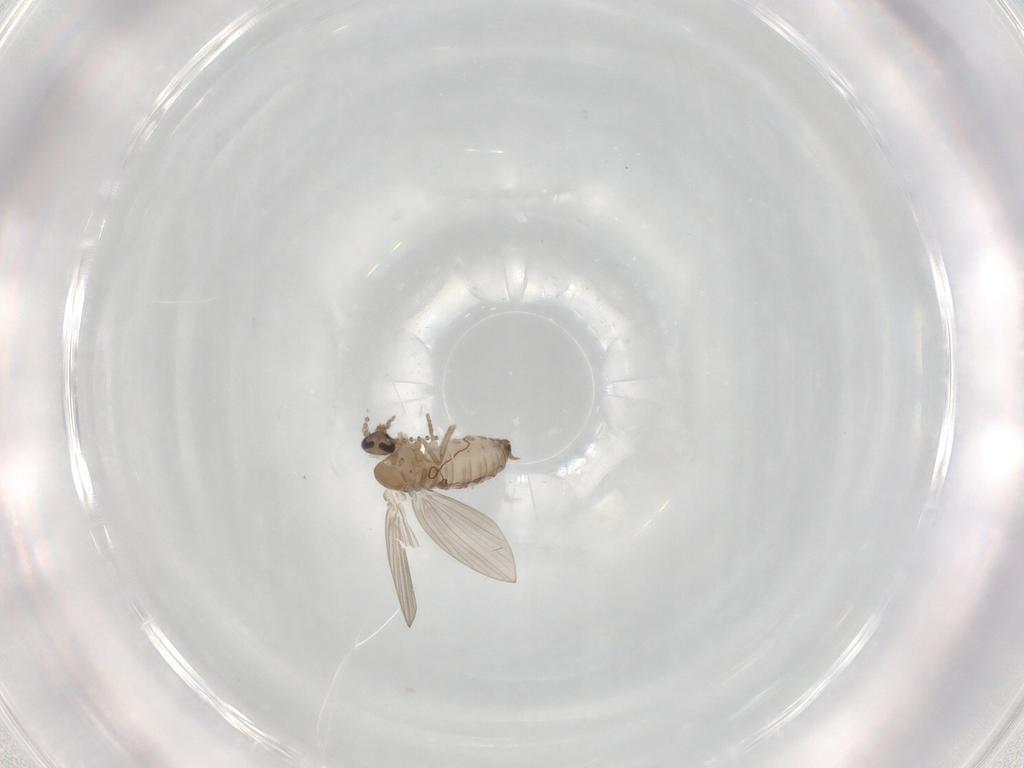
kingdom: Animalia
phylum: Arthropoda
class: Insecta
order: Diptera
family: Psychodidae
